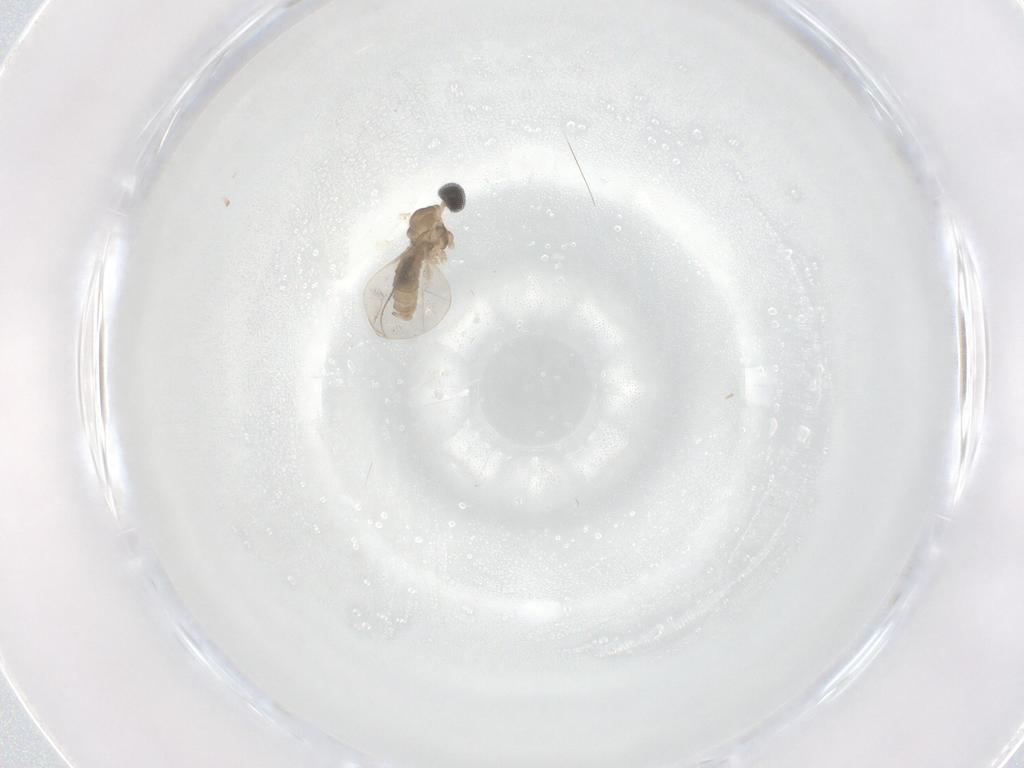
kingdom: Animalia
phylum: Arthropoda
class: Insecta
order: Diptera
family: Cecidomyiidae
